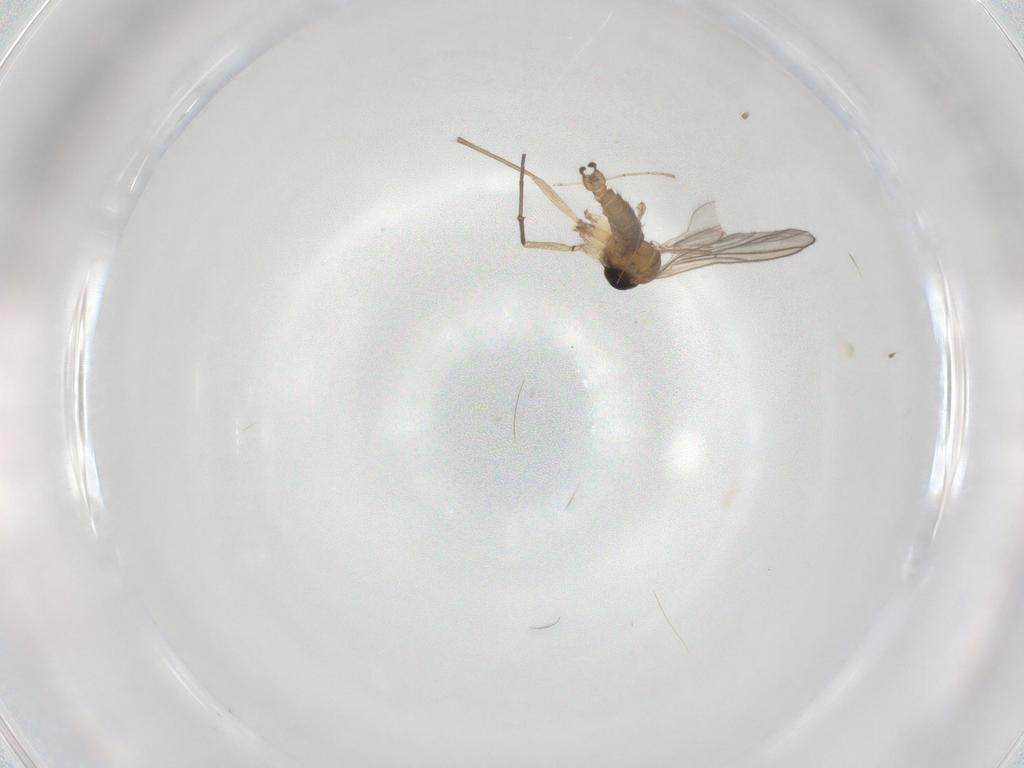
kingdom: Animalia
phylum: Arthropoda
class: Insecta
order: Diptera
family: Sciaridae
